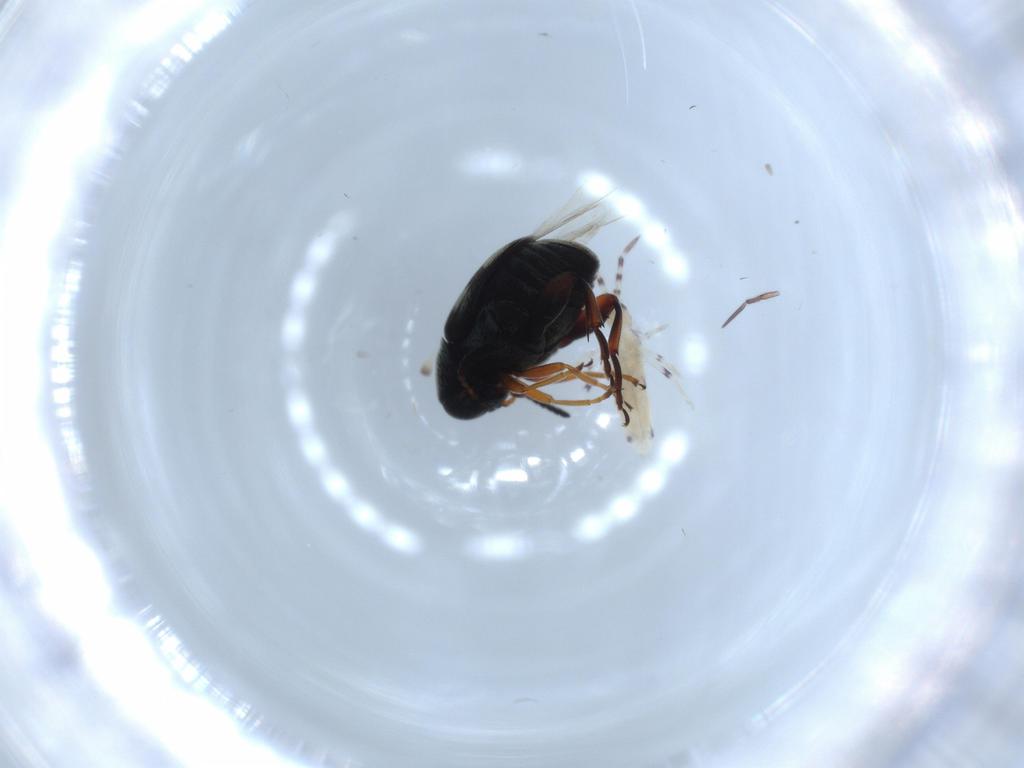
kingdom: Animalia
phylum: Arthropoda
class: Collembola
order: Entomobryomorpha
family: Entomobryidae
